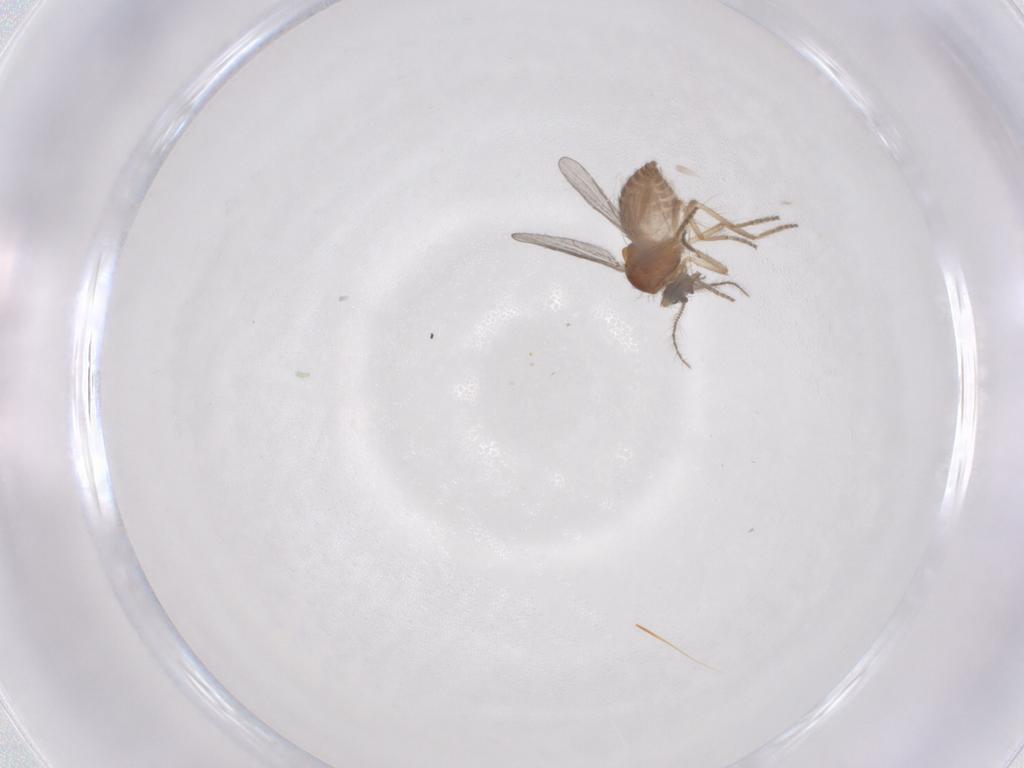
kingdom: Animalia
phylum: Arthropoda
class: Insecta
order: Diptera
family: Ceratopogonidae
